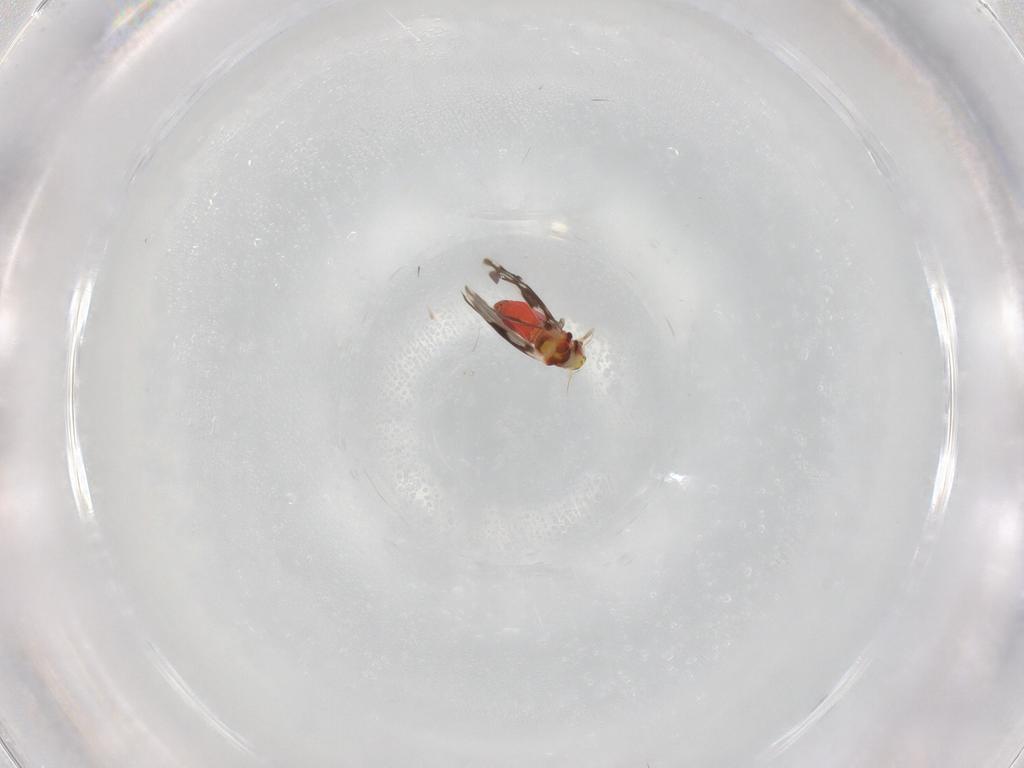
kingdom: Animalia
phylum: Arthropoda
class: Insecta
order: Hemiptera
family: Aleyrodidae
